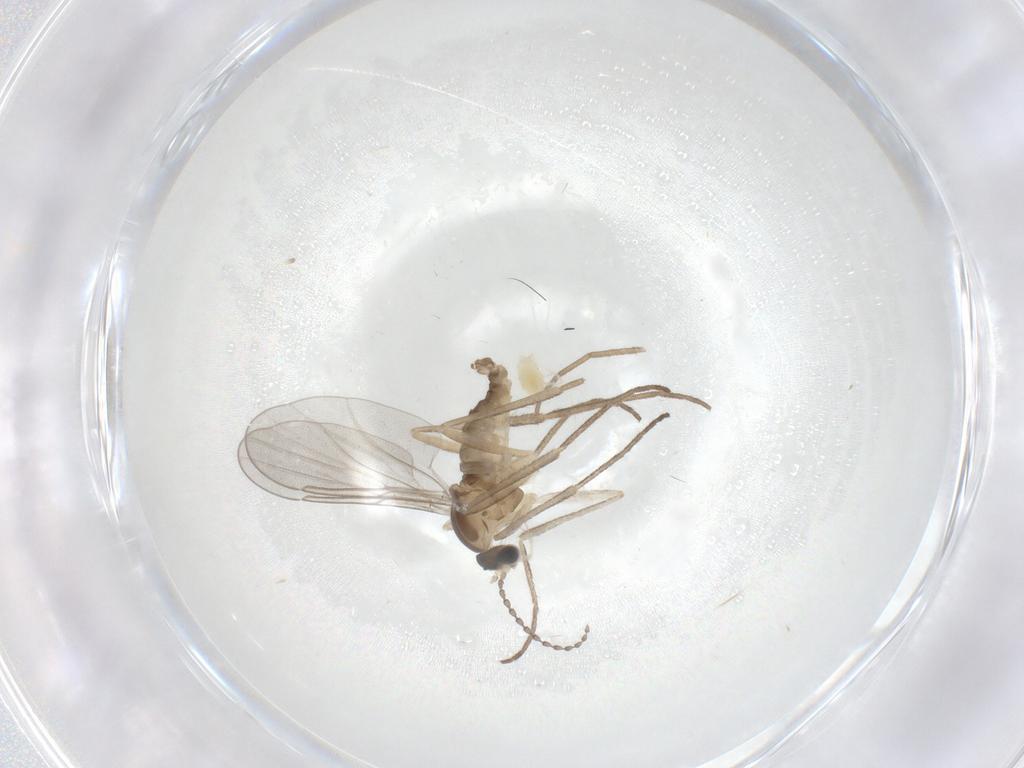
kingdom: Animalia
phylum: Arthropoda
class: Insecta
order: Diptera
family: Cecidomyiidae
